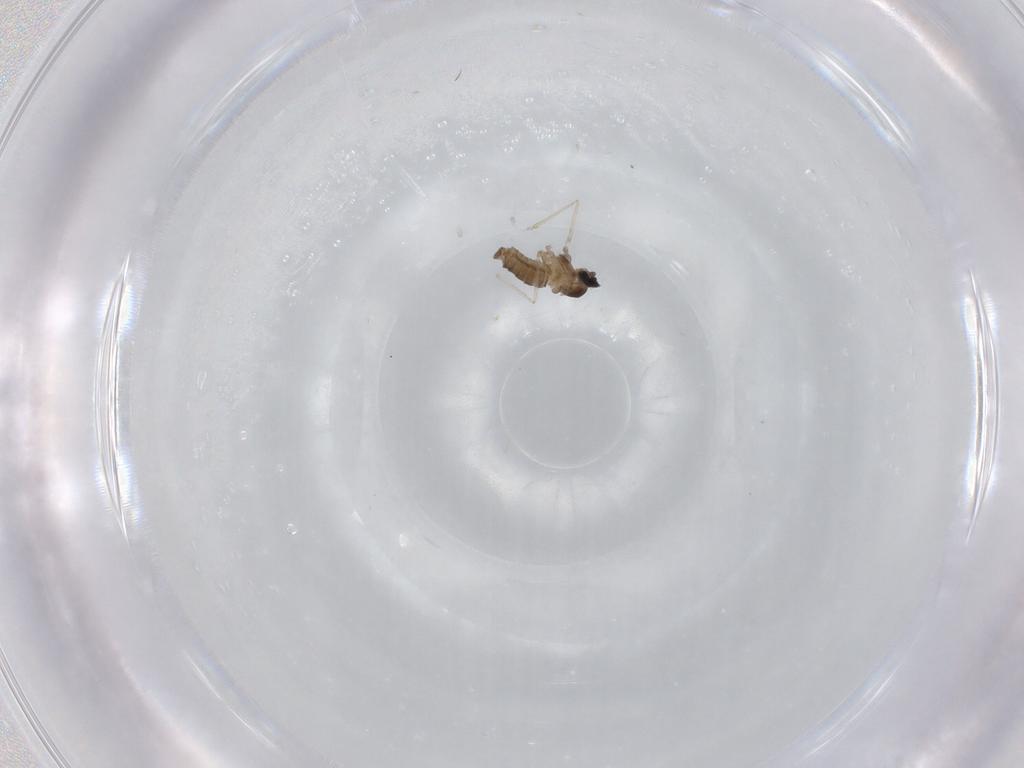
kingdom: Animalia
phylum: Arthropoda
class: Insecta
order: Diptera
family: Cecidomyiidae
